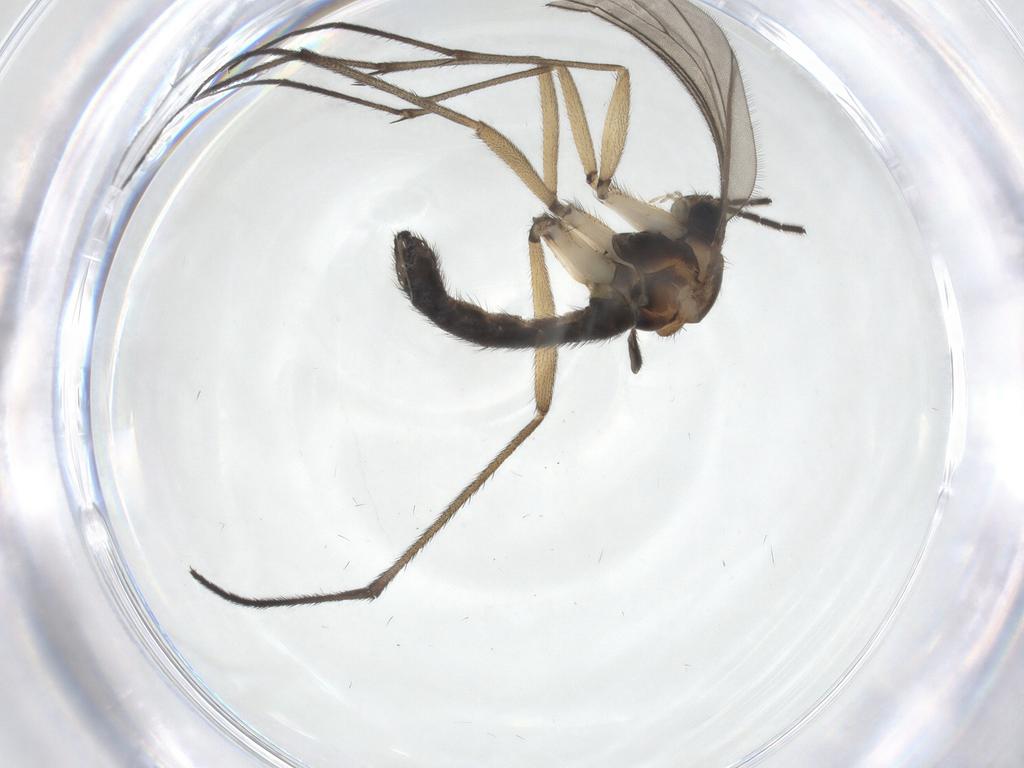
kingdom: Animalia
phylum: Arthropoda
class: Insecta
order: Diptera
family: Sciaridae
